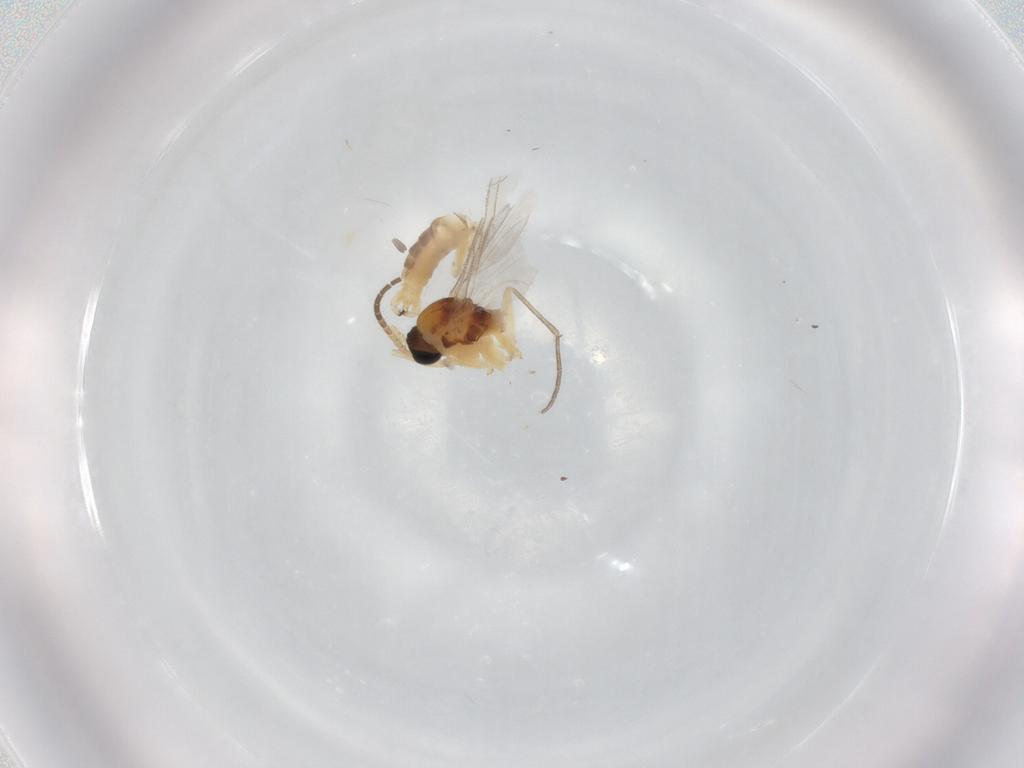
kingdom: Animalia
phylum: Arthropoda
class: Insecta
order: Diptera
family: Sciaridae
